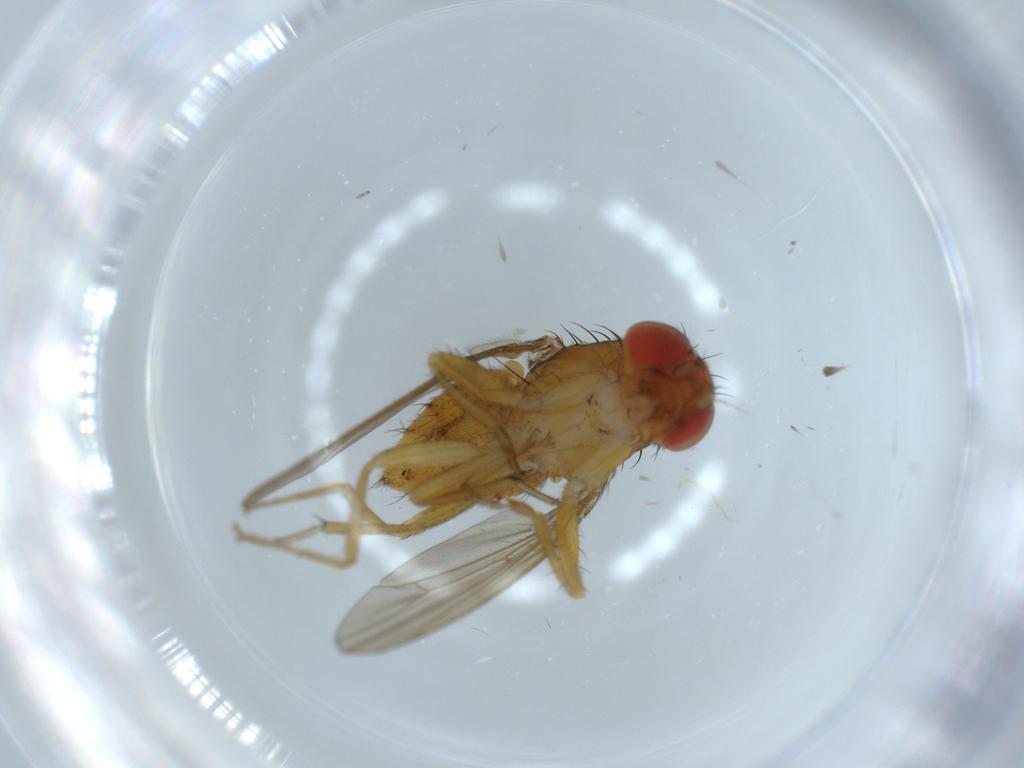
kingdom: Animalia
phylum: Arthropoda
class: Insecta
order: Diptera
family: Drosophilidae
